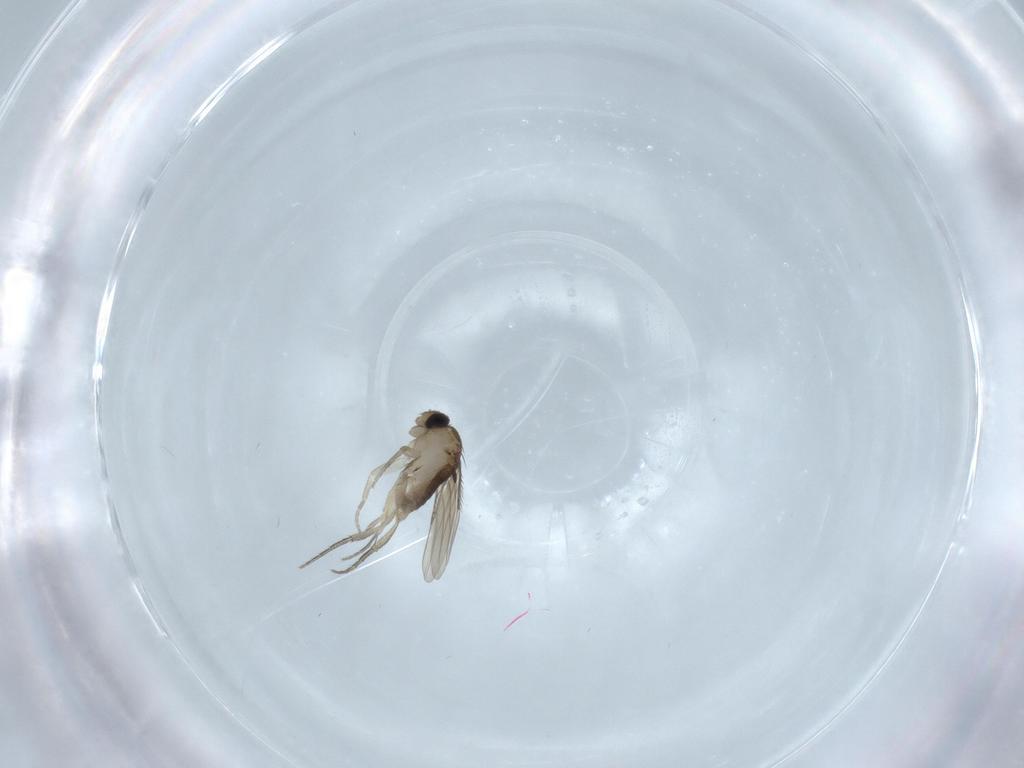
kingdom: Animalia
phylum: Arthropoda
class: Insecta
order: Diptera
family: Phoridae
